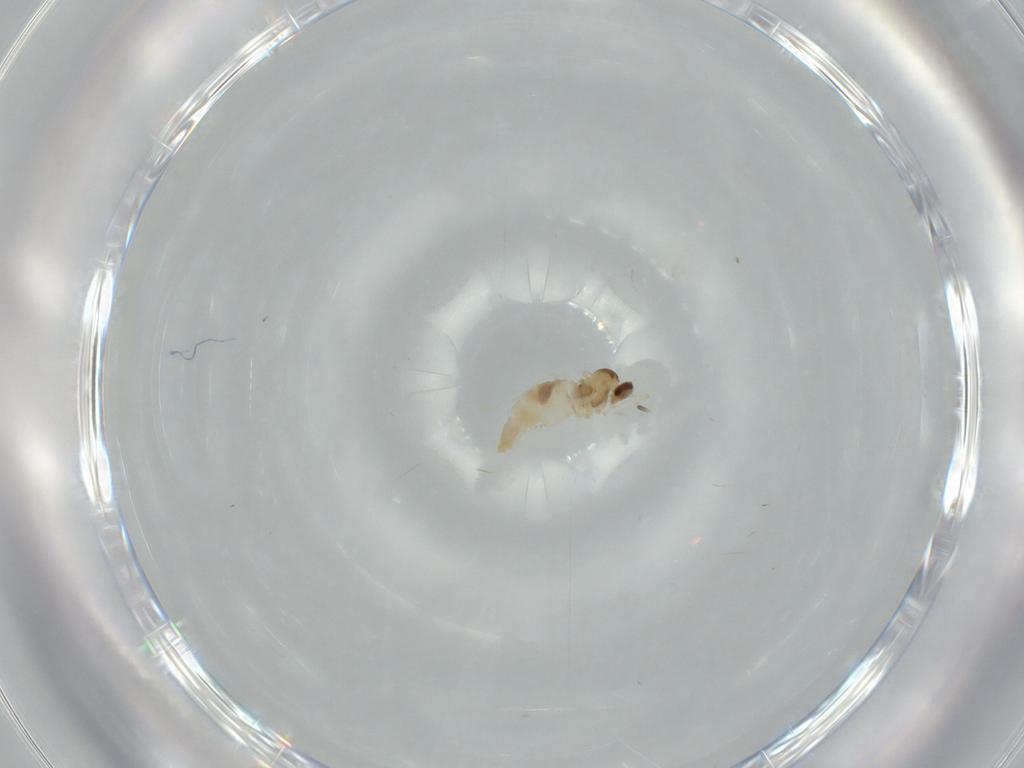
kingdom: Animalia
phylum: Arthropoda
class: Insecta
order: Diptera
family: Cecidomyiidae
